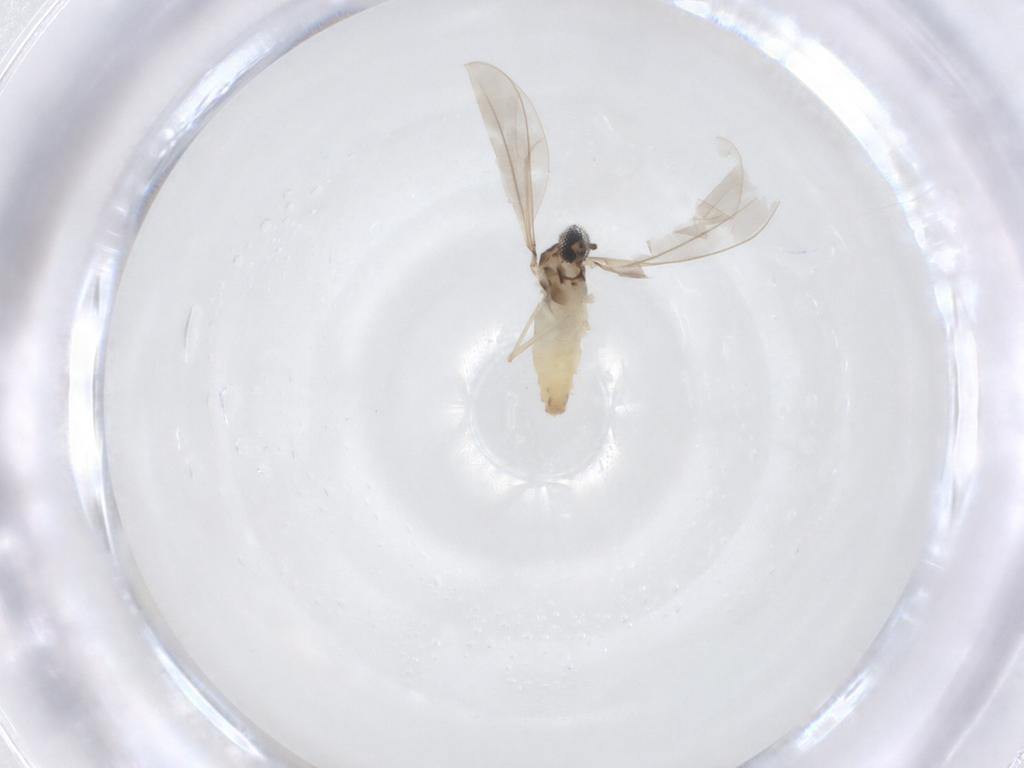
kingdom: Animalia
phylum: Arthropoda
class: Insecta
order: Diptera
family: Cecidomyiidae
